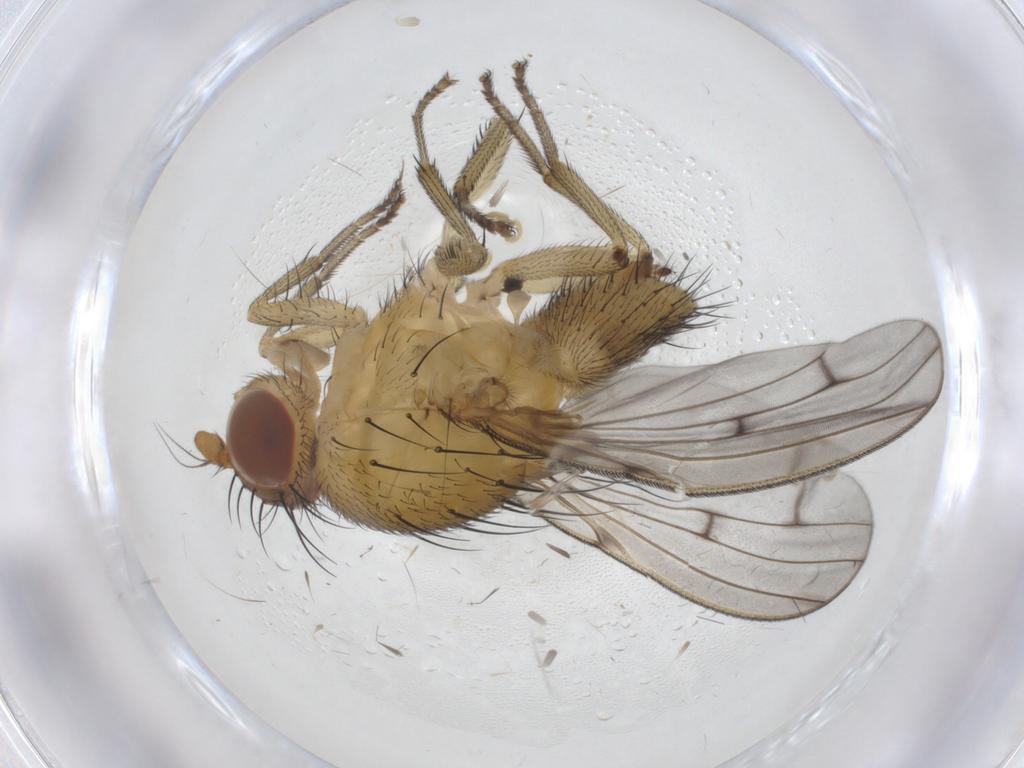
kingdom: Animalia
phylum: Arthropoda
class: Insecta
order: Diptera
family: Cecidomyiidae
